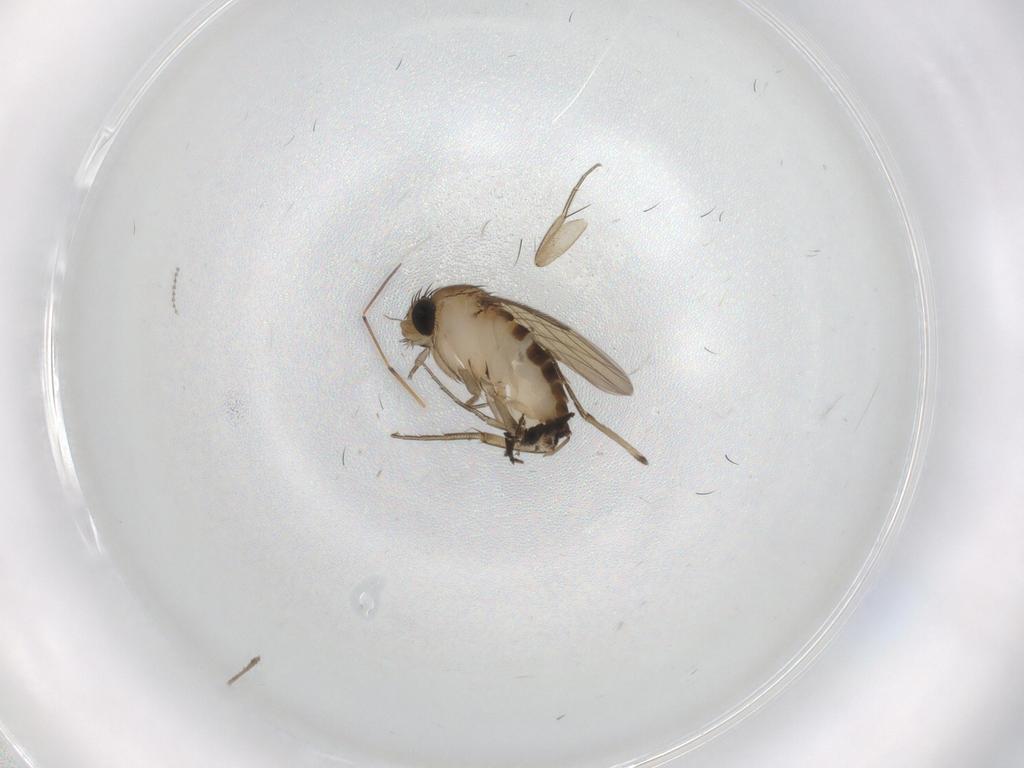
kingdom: Animalia
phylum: Arthropoda
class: Insecta
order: Diptera
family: Phoridae
